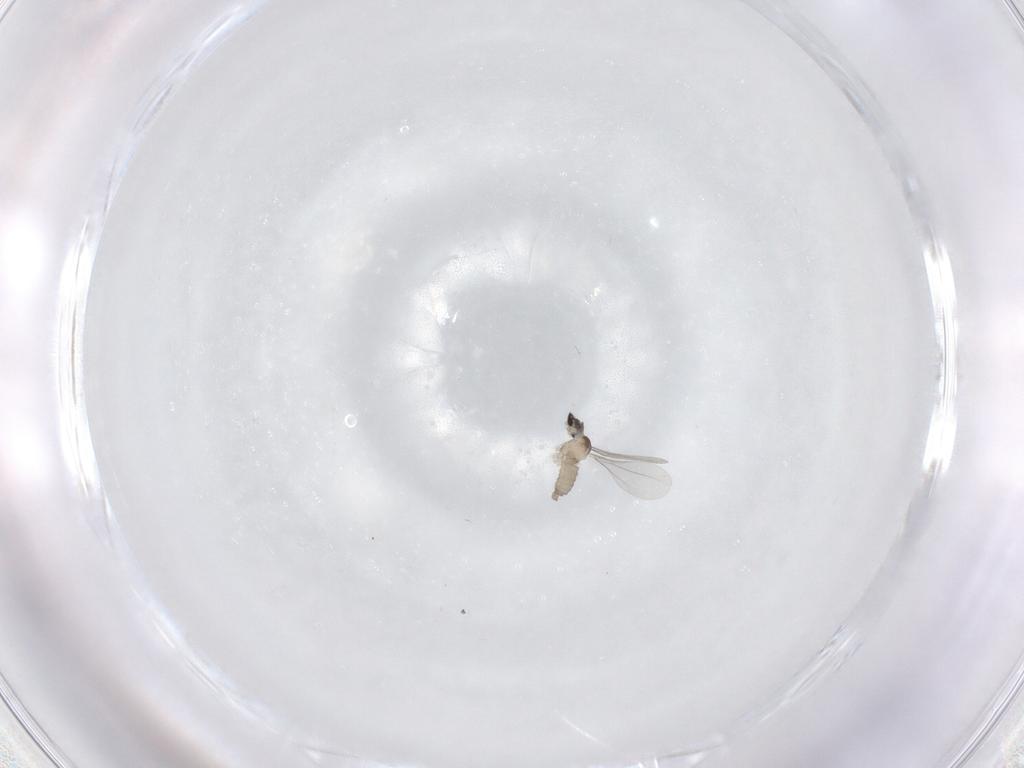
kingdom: Animalia
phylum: Arthropoda
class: Insecta
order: Diptera
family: Cecidomyiidae
